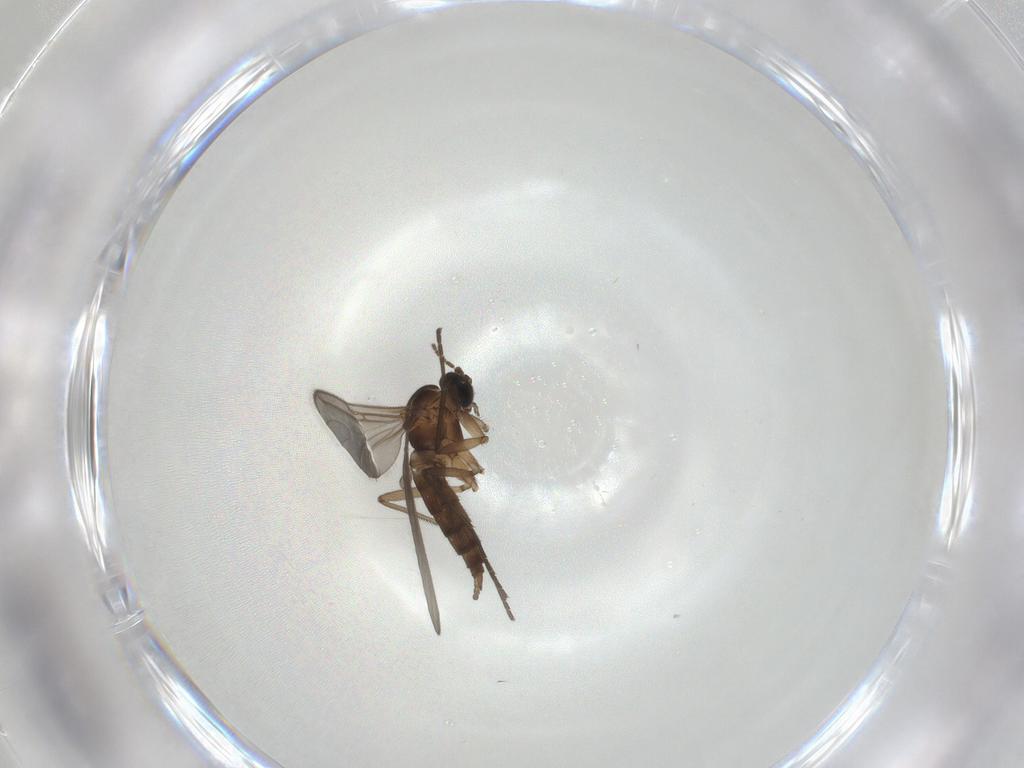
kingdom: Animalia
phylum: Arthropoda
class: Insecta
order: Diptera
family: Sciaridae
